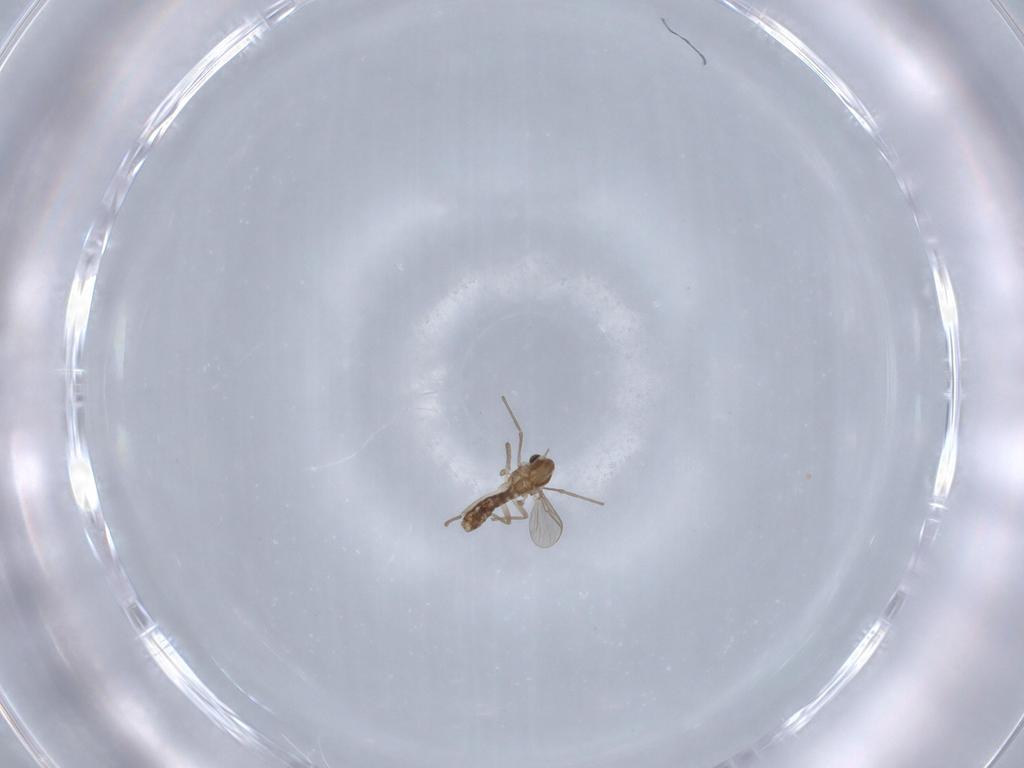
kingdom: Animalia
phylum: Arthropoda
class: Insecta
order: Diptera
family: Chironomidae
